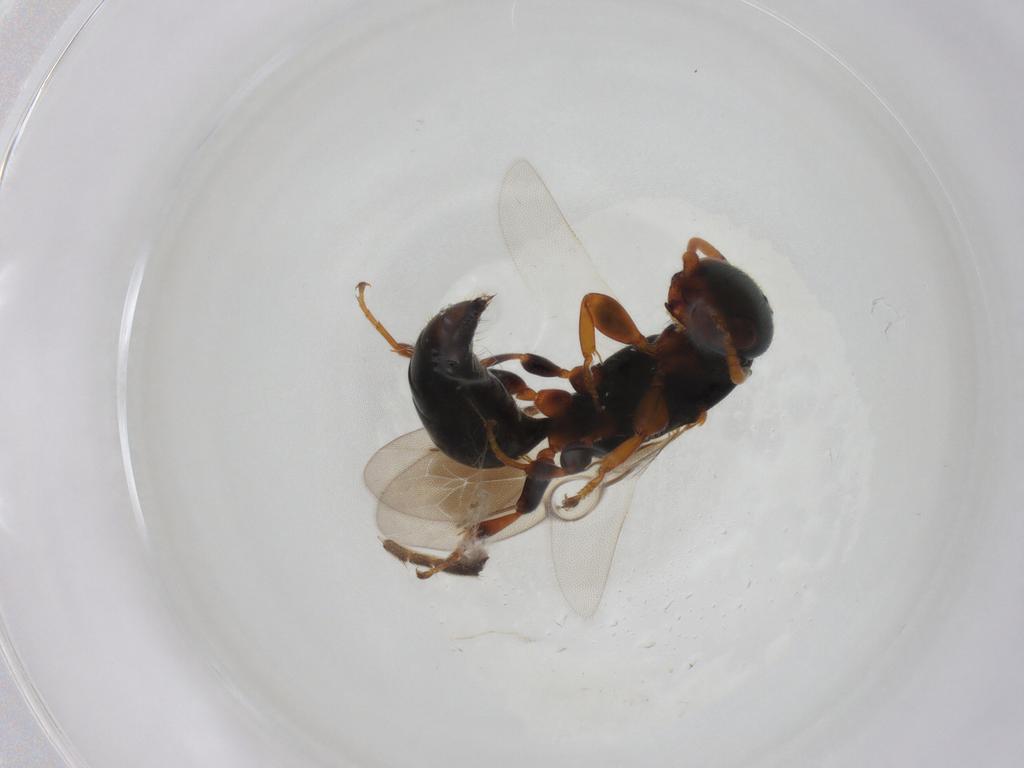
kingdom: Animalia
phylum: Arthropoda
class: Insecta
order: Hymenoptera
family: Bethylidae
